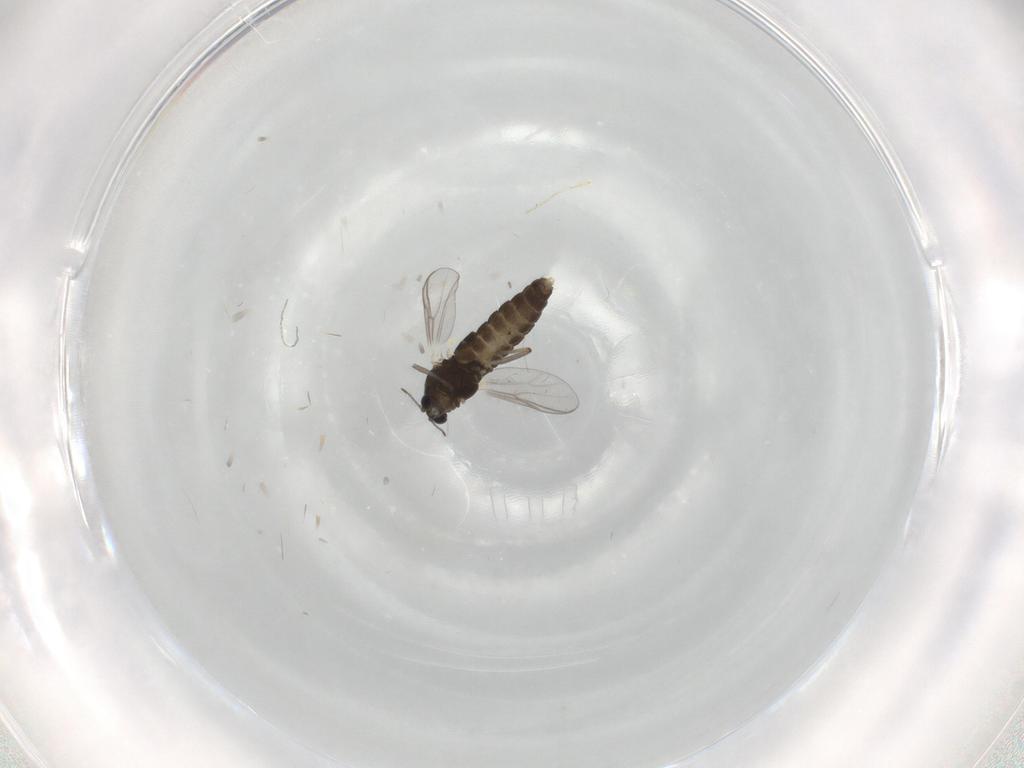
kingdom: Animalia
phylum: Arthropoda
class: Insecta
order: Diptera
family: Chironomidae
